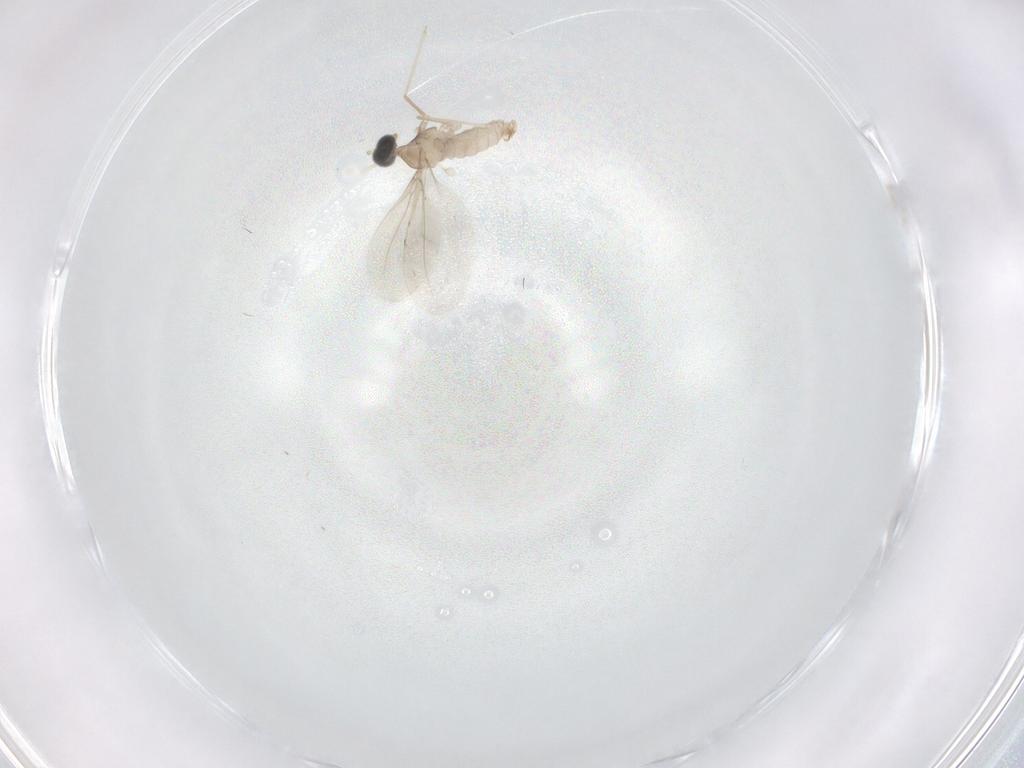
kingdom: Animalia
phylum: Arthropoda
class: Insecta
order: Diptera
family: Cecidomyiidae
